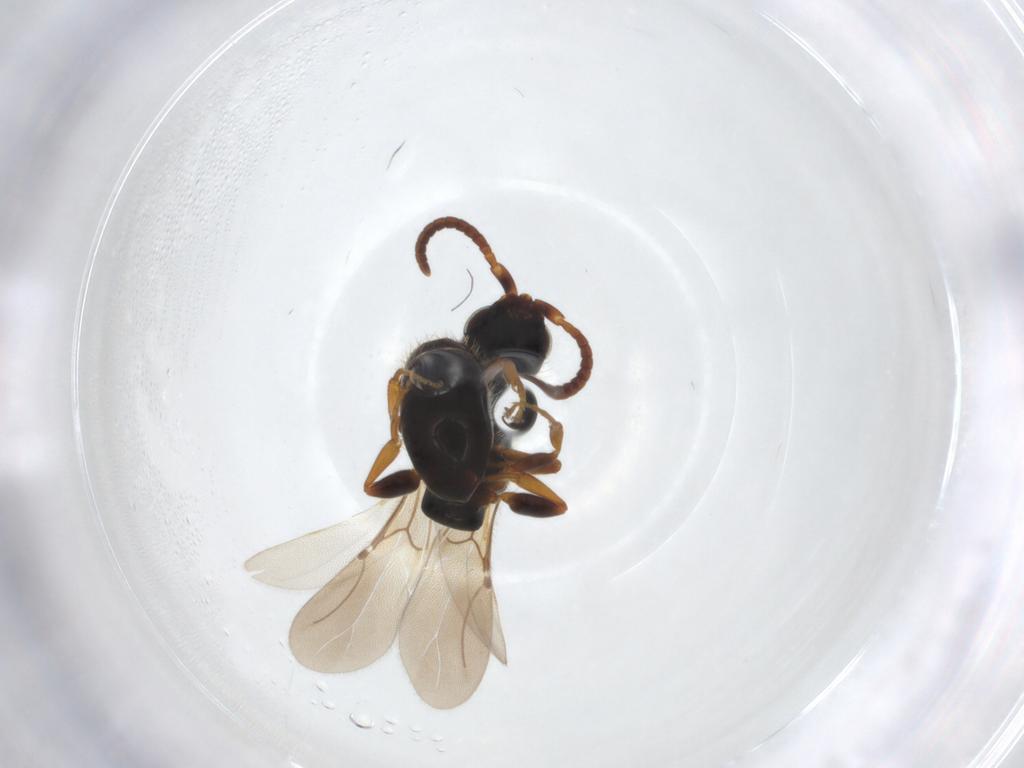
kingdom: Animalia
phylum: Arthropoda
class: Insecta
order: Hymenoptera
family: Bethylidae
